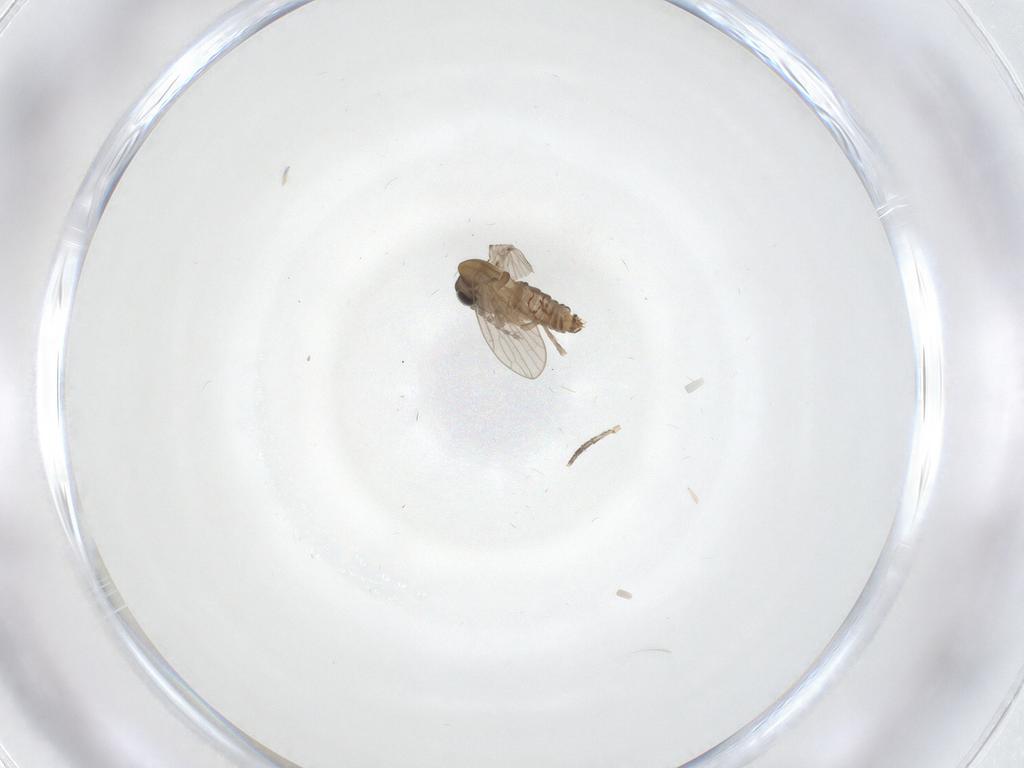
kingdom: Animalia
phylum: Arthropoda
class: Insecta
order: Diptera
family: Psychodidae
